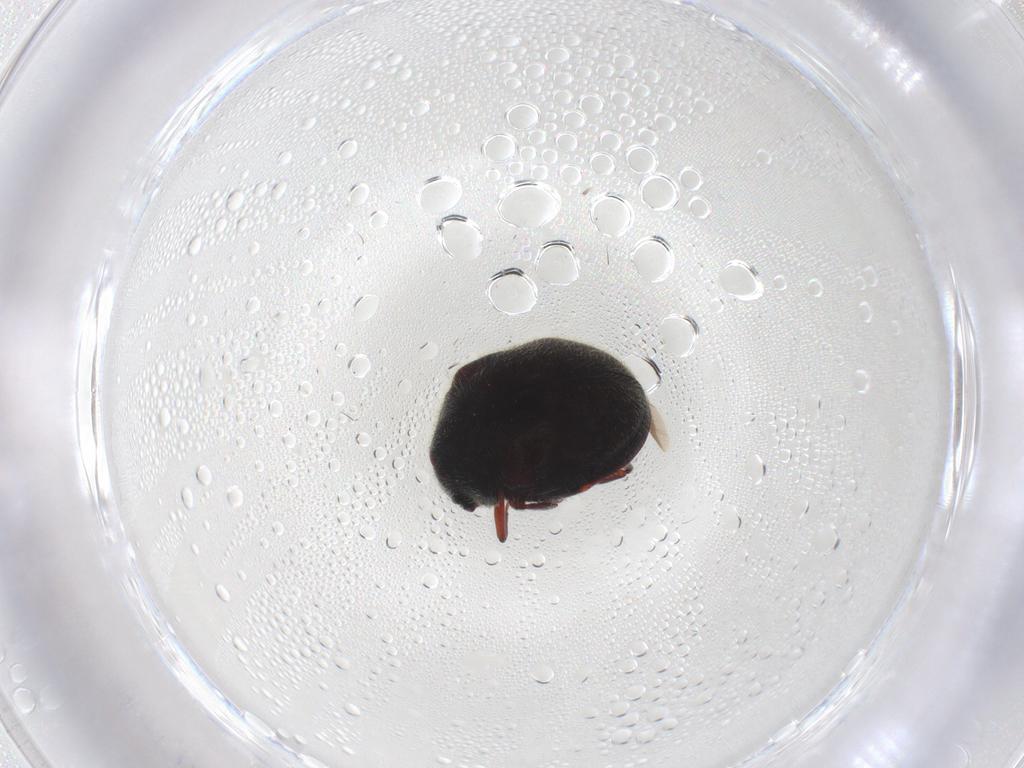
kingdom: Animalia
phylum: Arthropoda
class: Insecta
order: Coleoptera
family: Ptinidae
